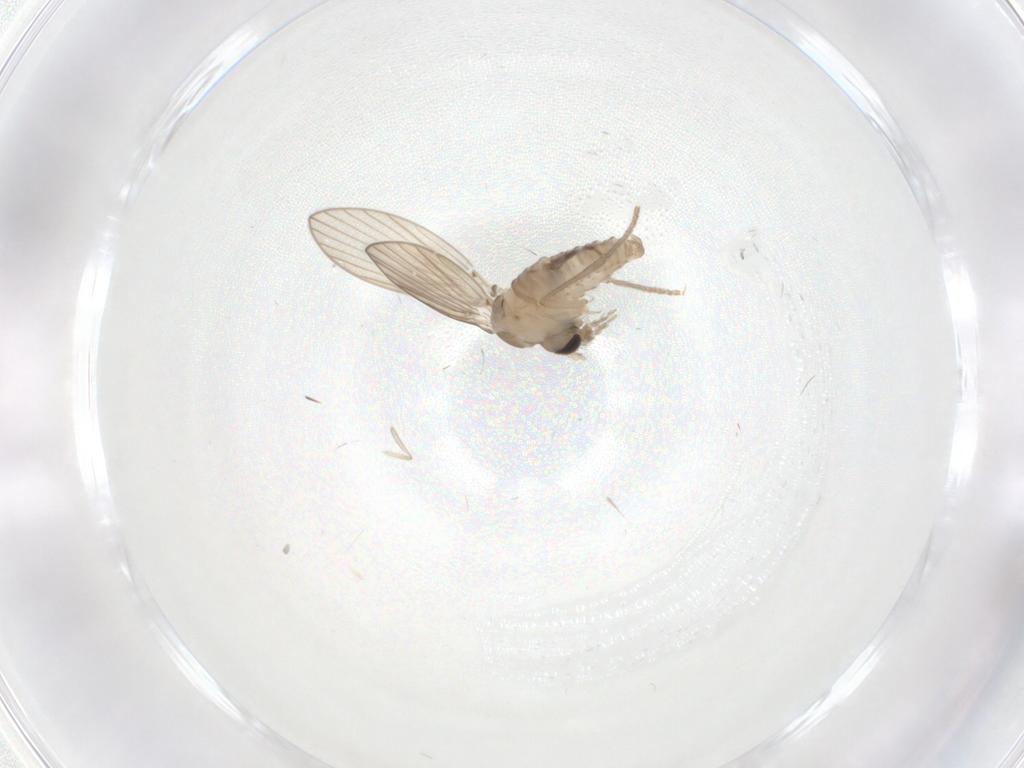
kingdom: Animalia
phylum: Arthropoda
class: Insecta
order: Diptera
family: Psychodidae
